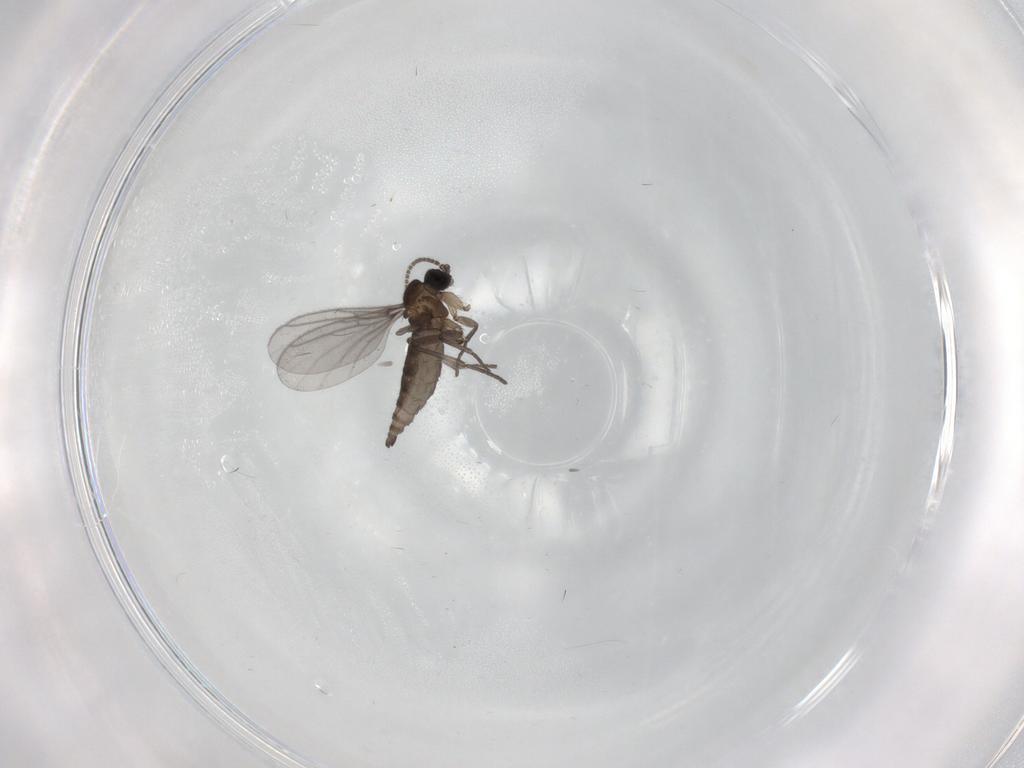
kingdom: Animalia
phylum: Arthropoda
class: Insecta
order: Diptera
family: Sciaridae
